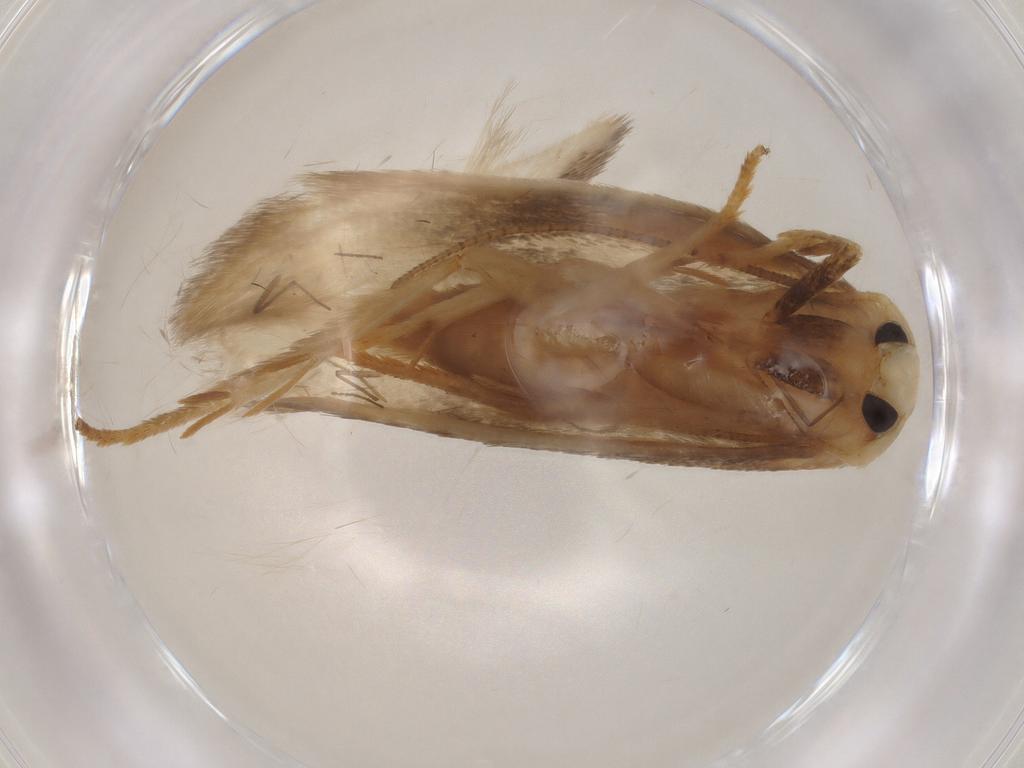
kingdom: Animalia
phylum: Arthropoda
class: Insecta
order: Lepidoptera
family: Geometridae
